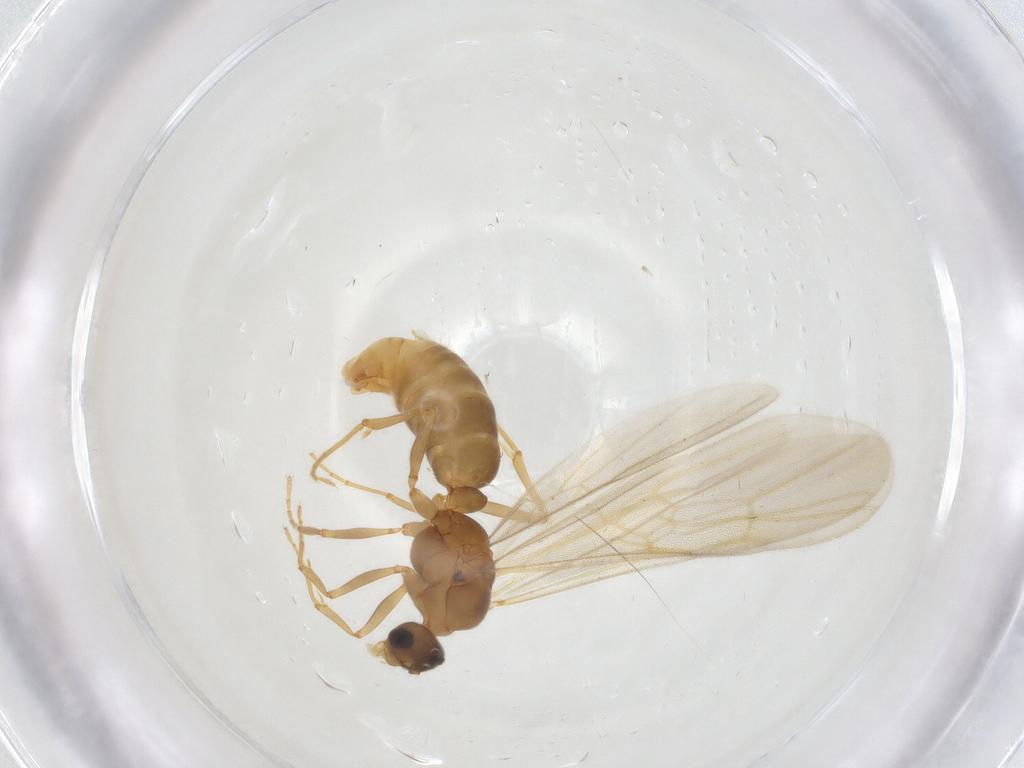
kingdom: Animalia
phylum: Arthropoda
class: Insecta
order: Hymenoptera
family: Formicidae
